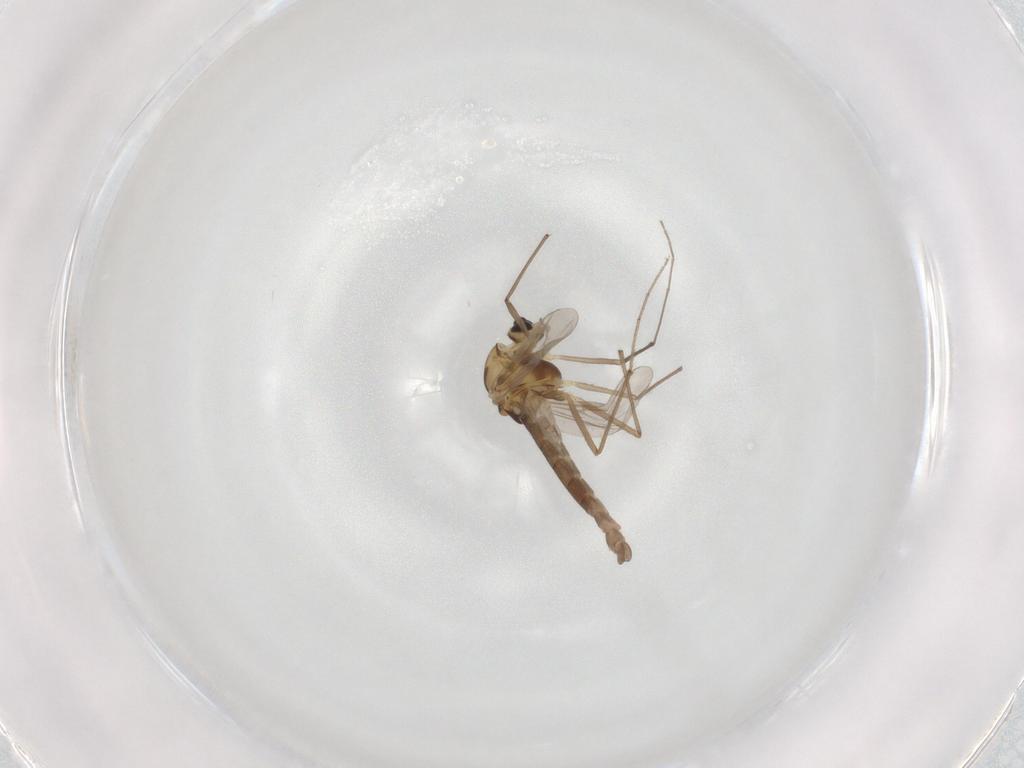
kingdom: Animalia
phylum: Arthropoda
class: Insecta
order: Diptera
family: Chironomidae
